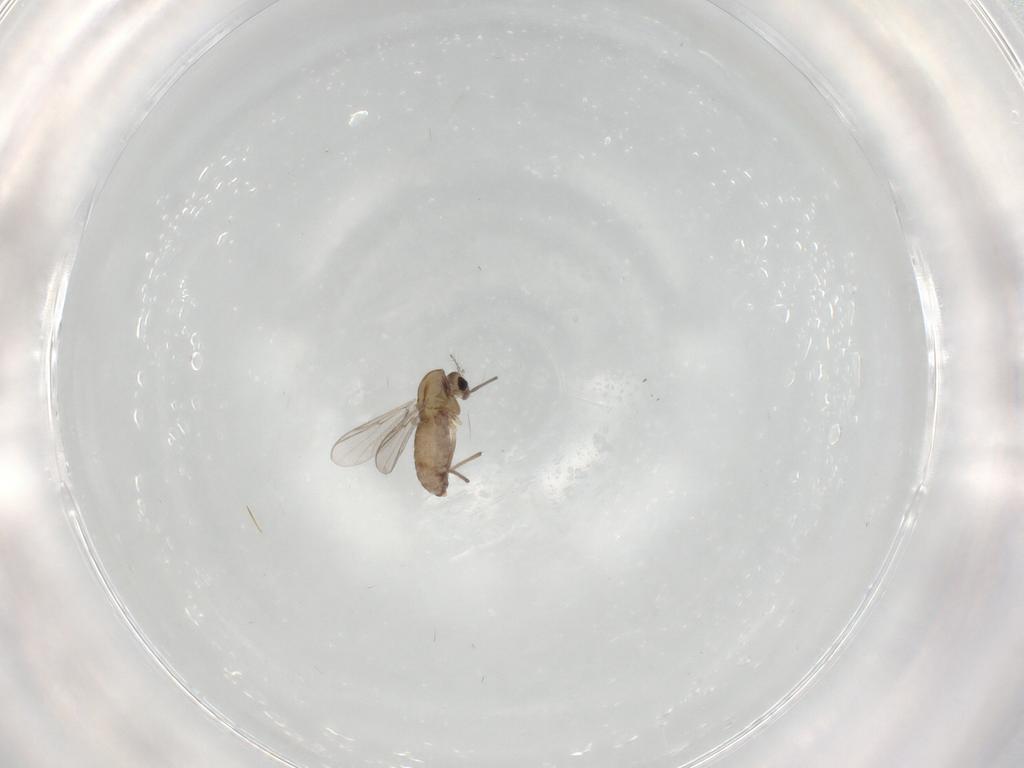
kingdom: Animalia
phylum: Arthropoda
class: Insecta
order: Diptera
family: Chironomidae
